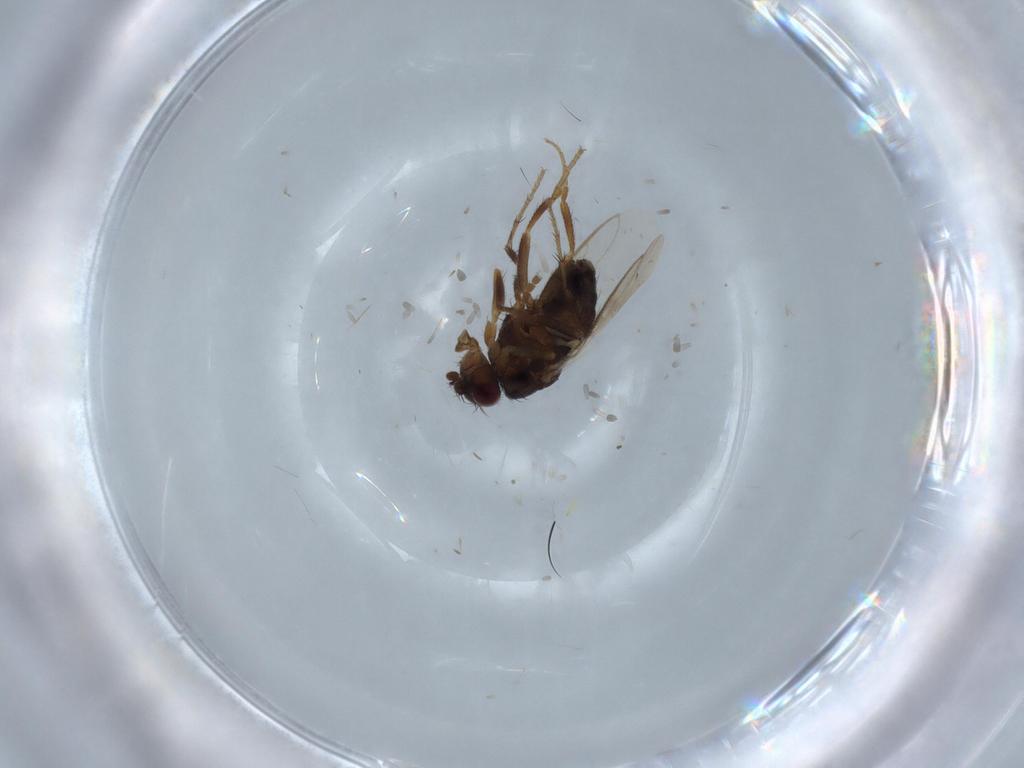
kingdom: Animalia
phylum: Arthropoda
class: Insecta
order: Diptera
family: Sphaeroceridae
